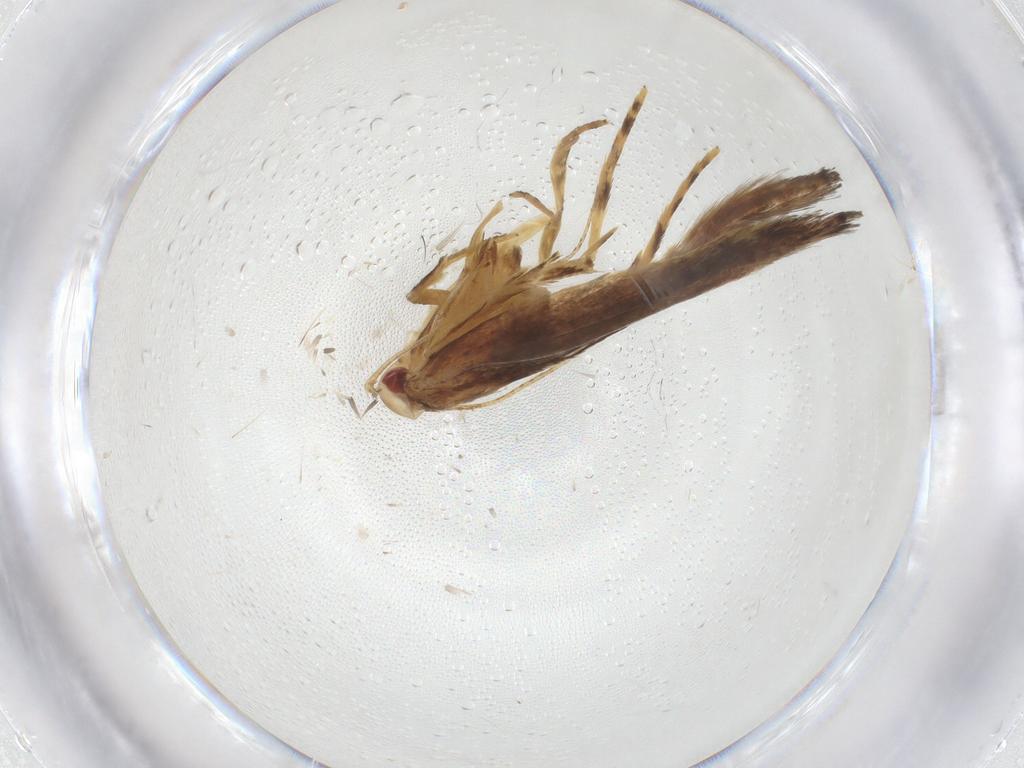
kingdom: Animalia
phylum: Arthropoda
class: Insecta
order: Lepidoptera
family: Cosmopterigidae
